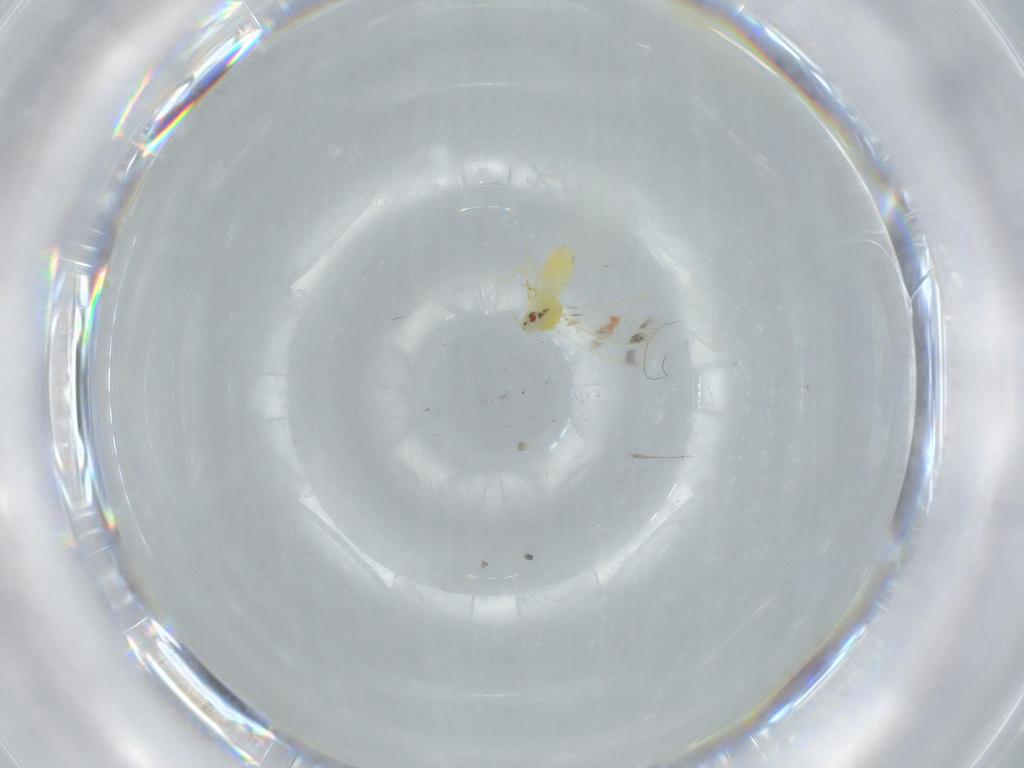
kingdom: Animalia
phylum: Arthropoda
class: Insecta
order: Hemiptera
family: Aleyrodidae
